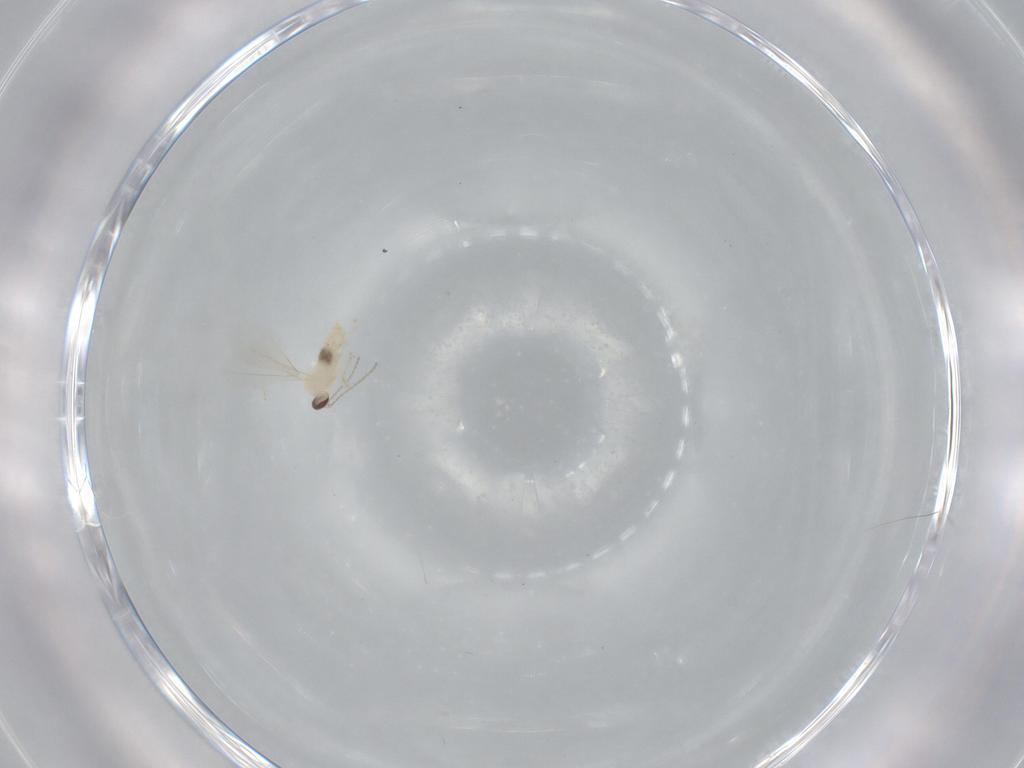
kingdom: Animalia
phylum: Arthropoda
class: Insecta
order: Diptera
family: Cecidomyiidae
